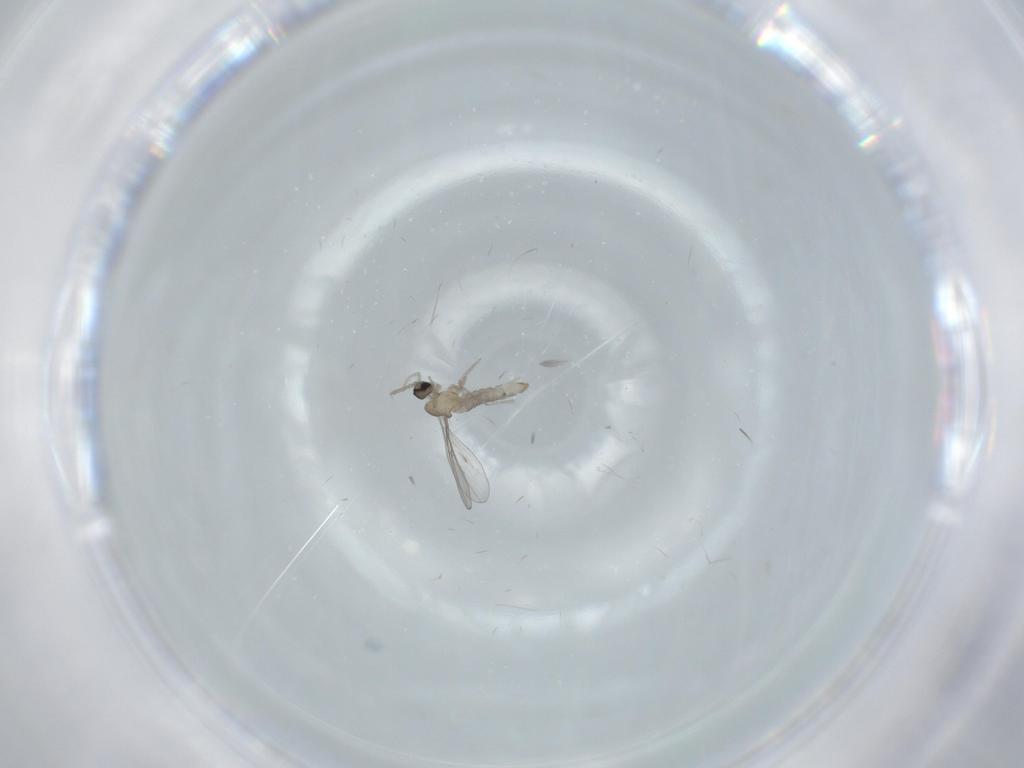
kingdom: Animalia
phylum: Arthropoda
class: Insecta
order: Diptera
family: Cecidomyiidae
